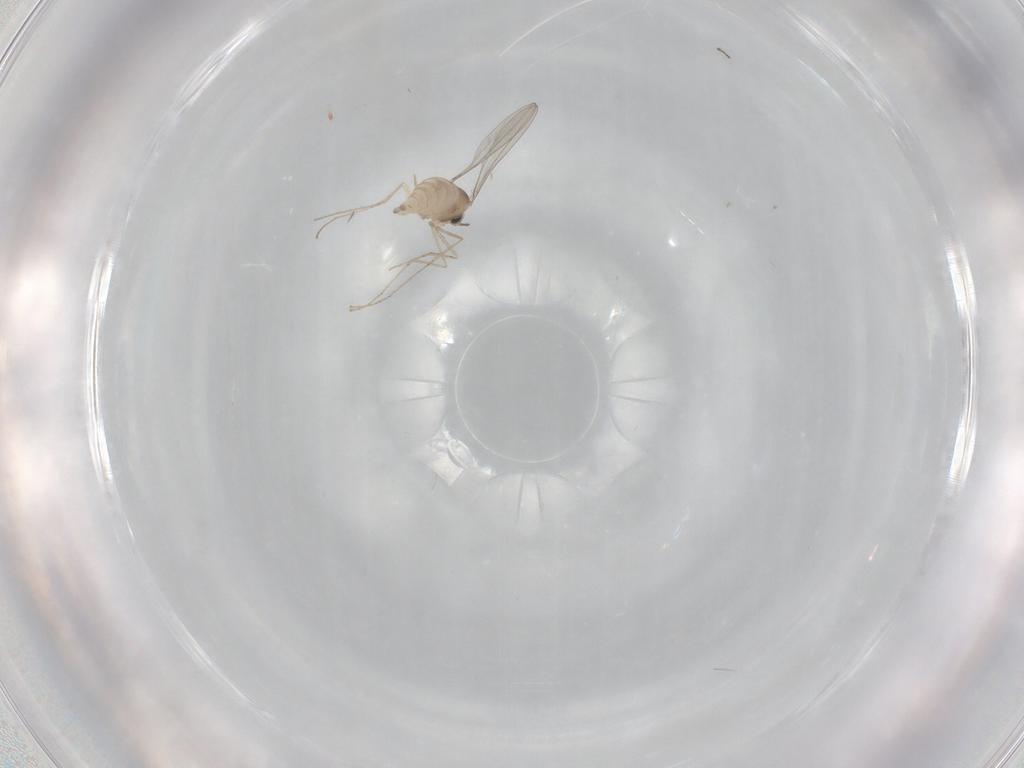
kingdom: Animalia
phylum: Arthropoda
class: Insecta
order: Diptera
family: Cecidomyiidae
